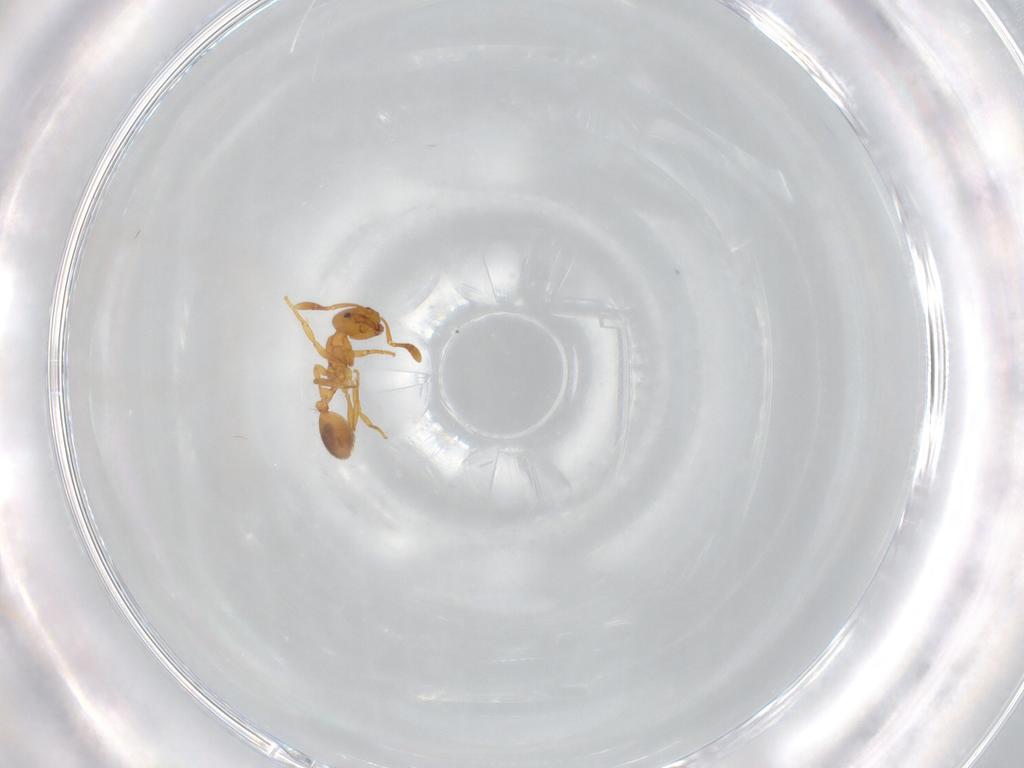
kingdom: Animalia
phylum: Arthropoda
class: Insecta
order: Hymenoptera
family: Formicidae
